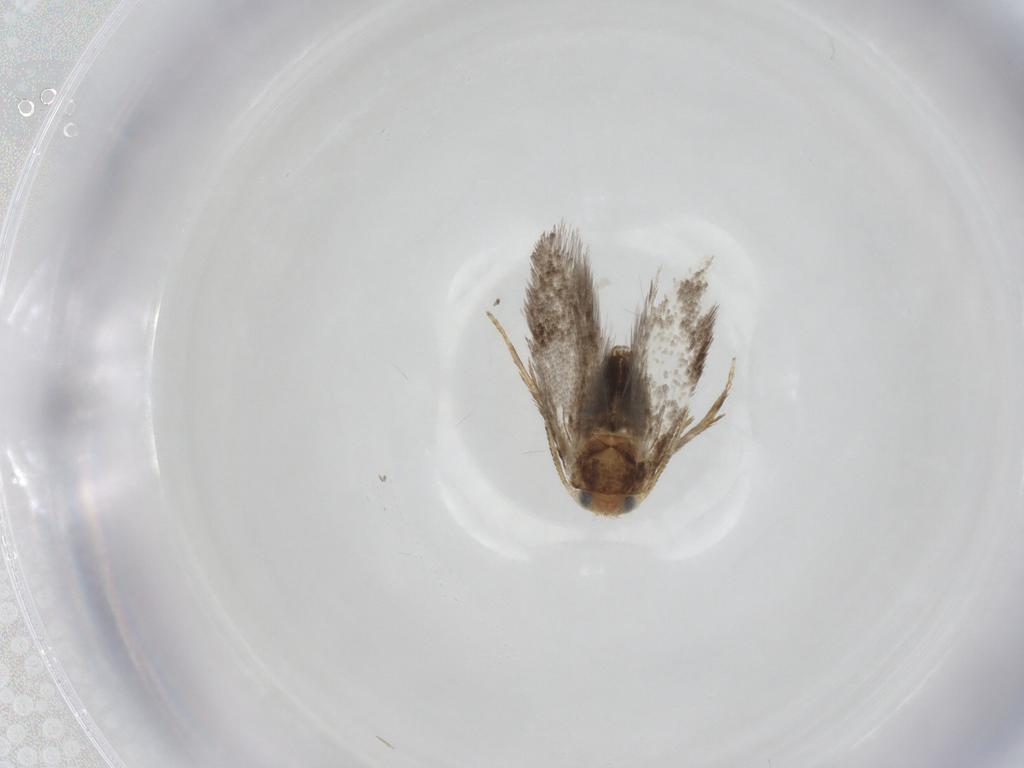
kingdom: Animalia
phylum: Arthropoda
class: Insecta
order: Lepidoptera
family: Nepticulidae
